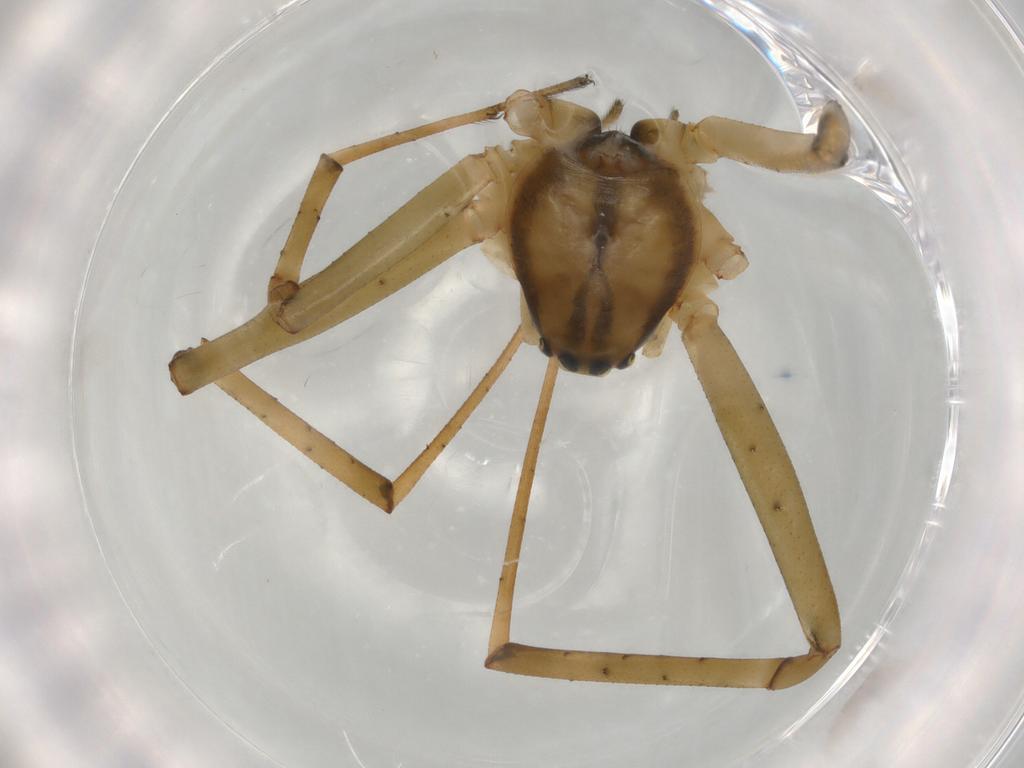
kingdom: Animalia
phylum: Arthropoda
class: Arachnida
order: Araneae
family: Linyphiidae
